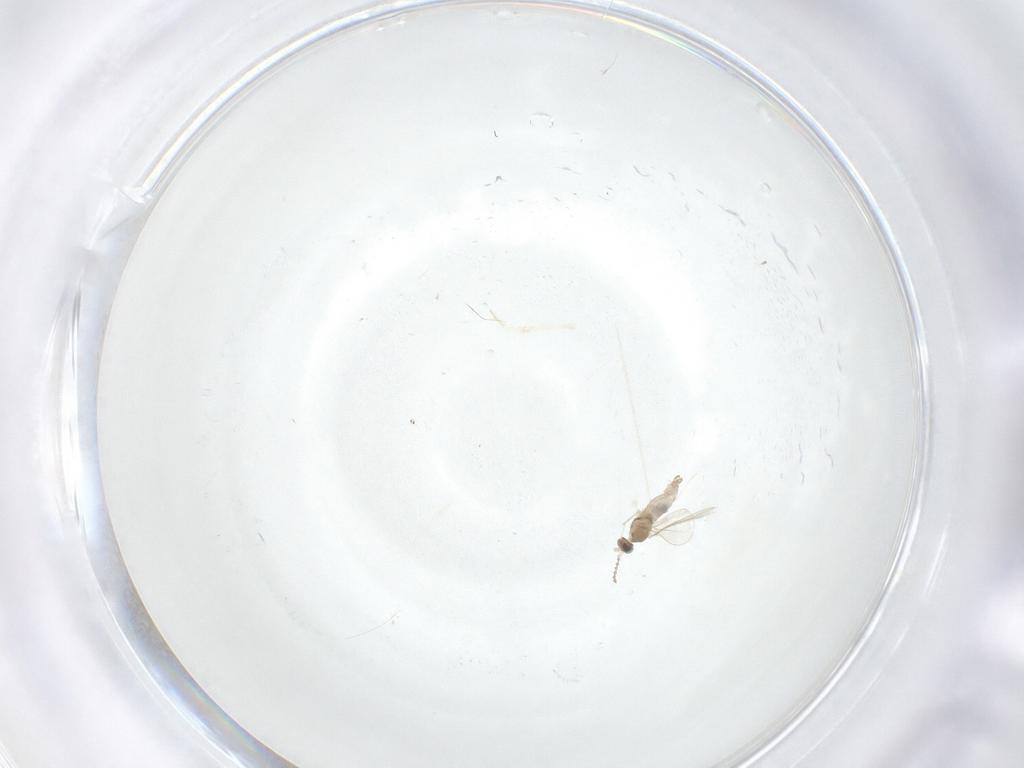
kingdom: Animalia
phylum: Arthropoda
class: Insecta
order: Diptera
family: Cecidomyiidae
